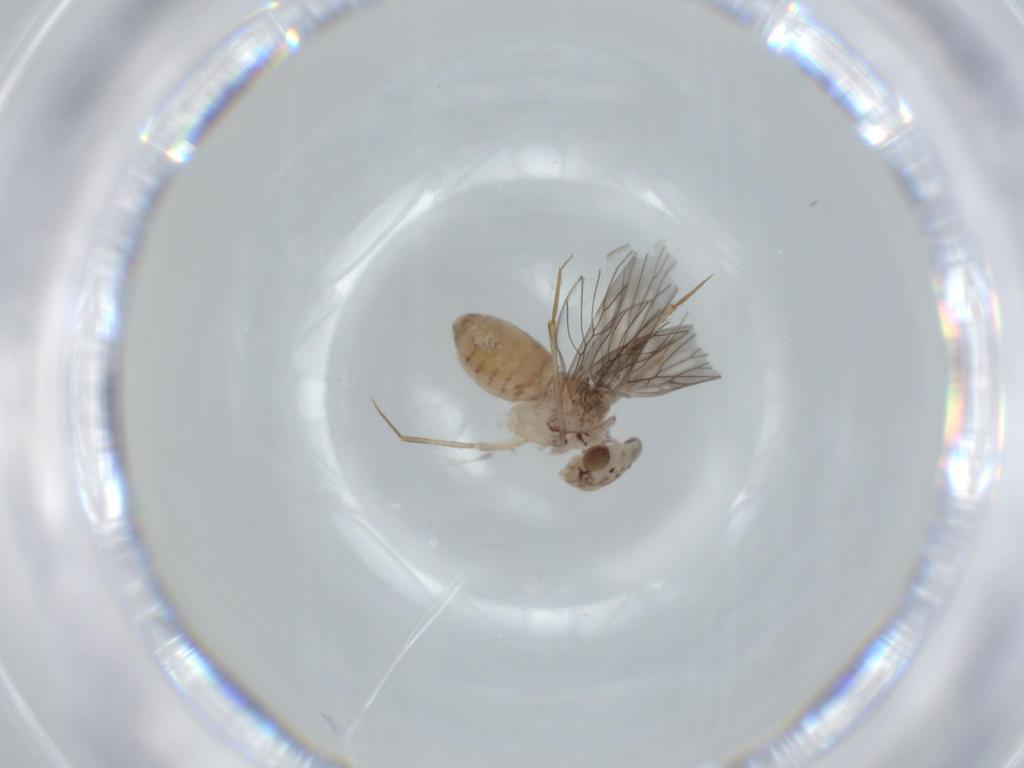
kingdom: Animalia
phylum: Arthropoda
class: Insecta
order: Psocodea
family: Lepidopsocidae
